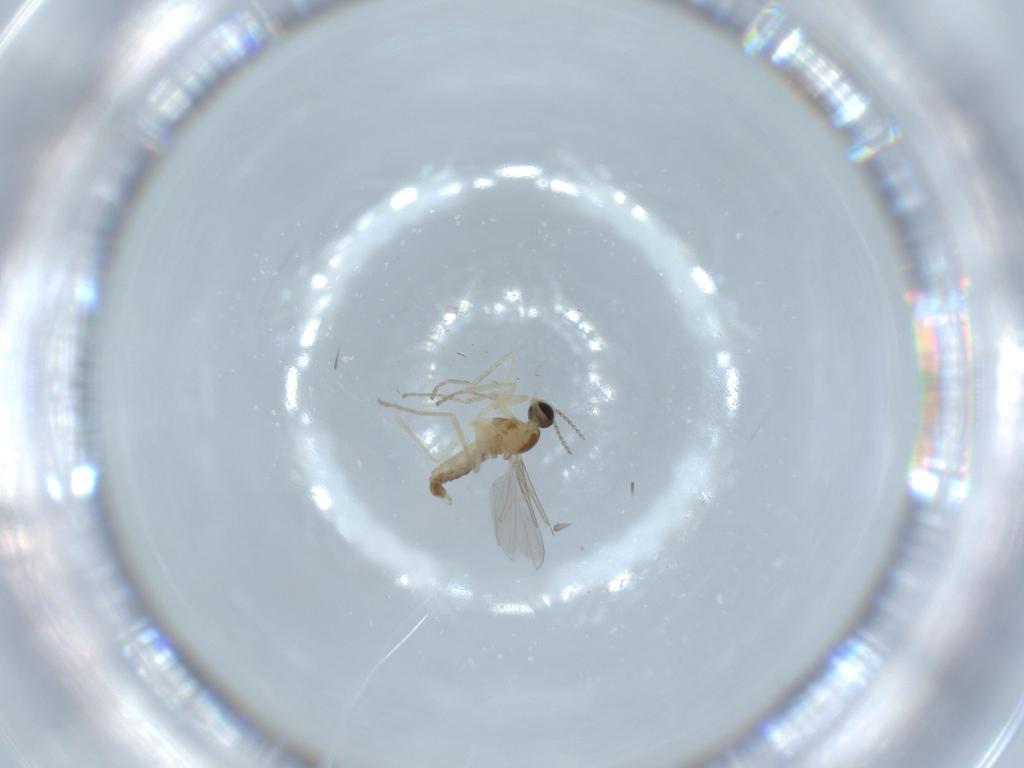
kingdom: Animalia
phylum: Arthropoda
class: Insecta
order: Diptera
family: Cecidomyiidae
